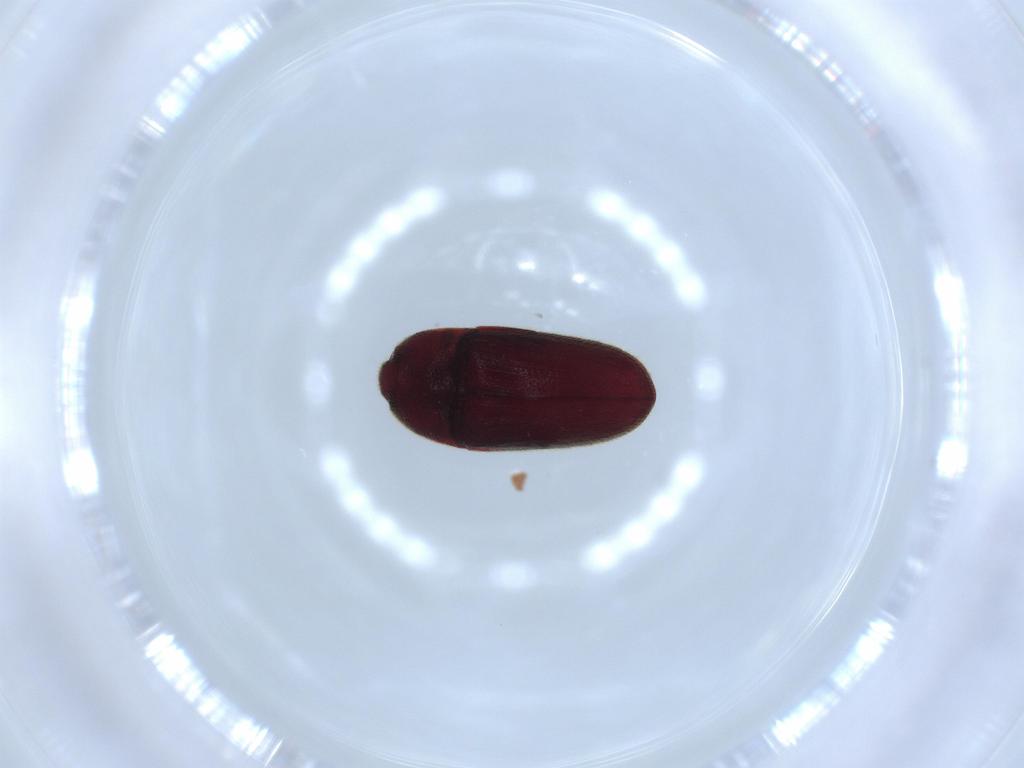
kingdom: Animalia
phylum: Arthropoda
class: Insecta
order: Coleoptera
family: Throscidae
